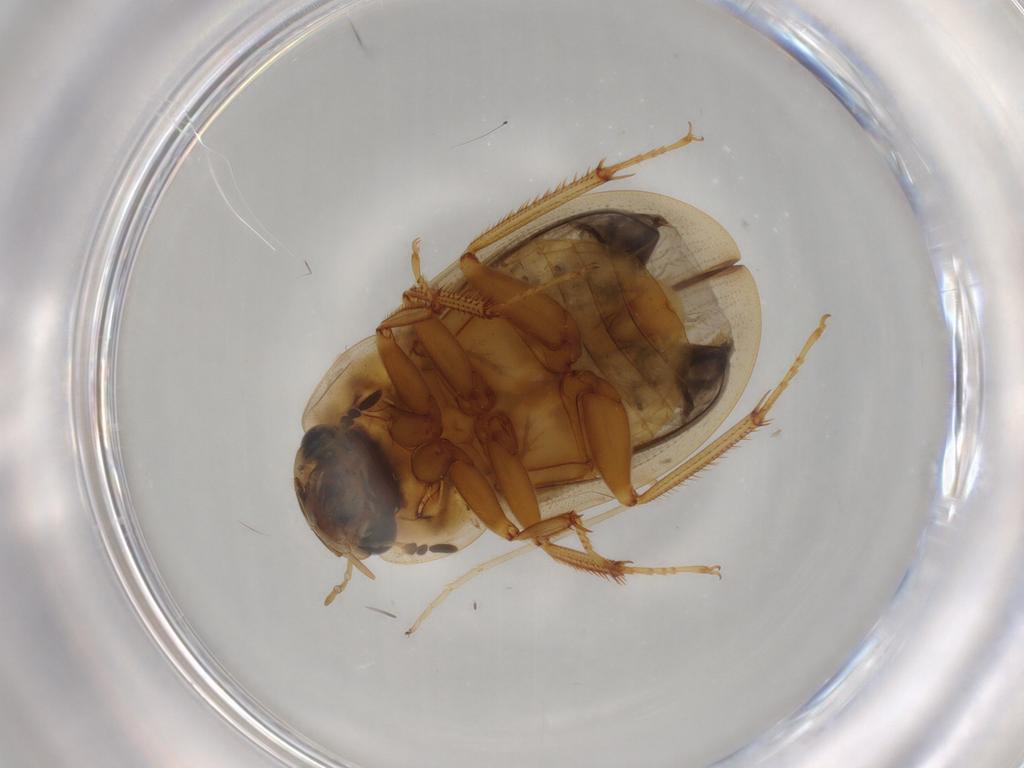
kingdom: Animalia
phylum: Arthropoda
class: Insecta
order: Coleoptera
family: Hydrophilidae
